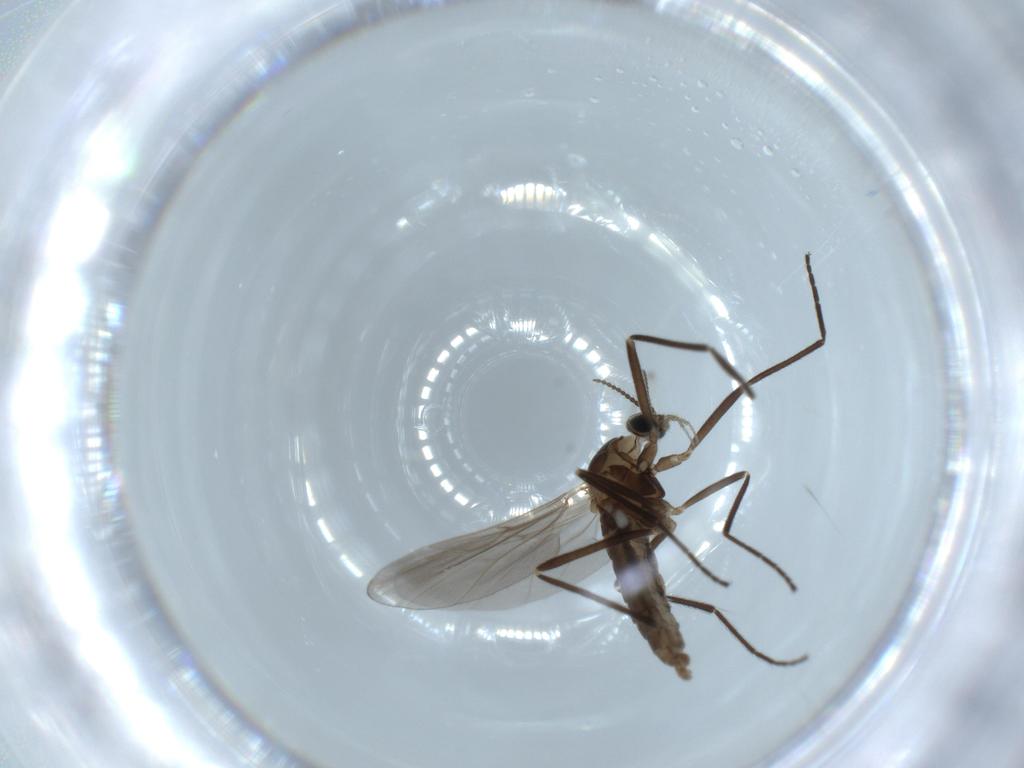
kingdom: Animalia
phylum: Arthropoda
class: Insecta
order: Diptera
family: Cecidomyiidae
